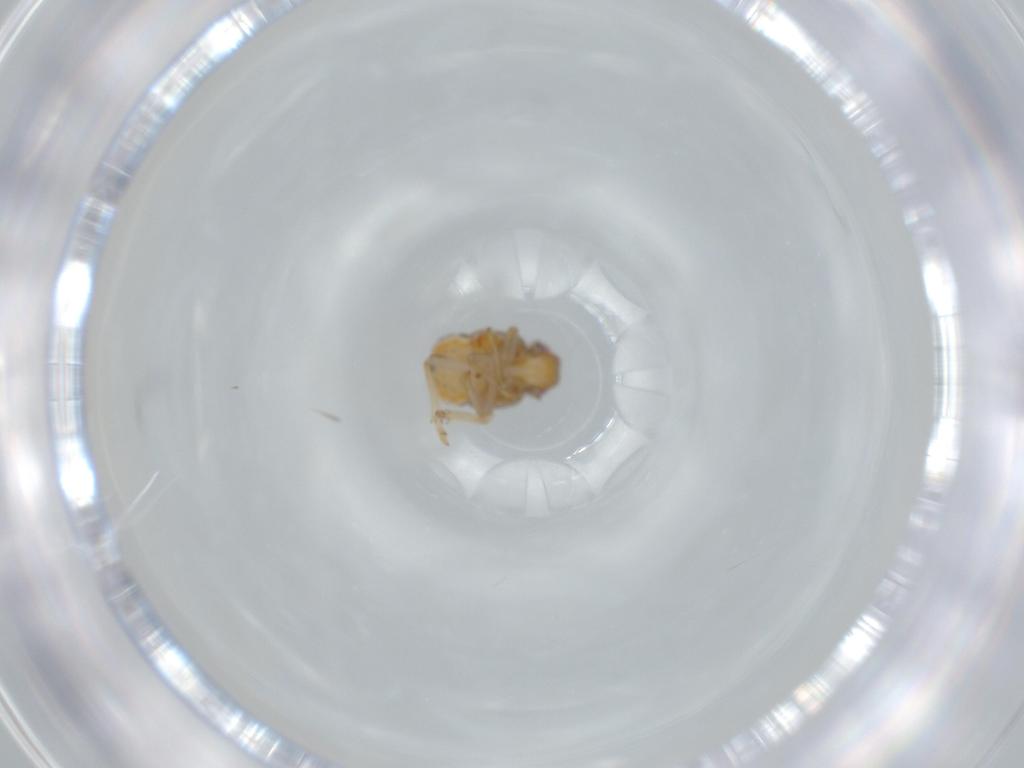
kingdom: Animalia
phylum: Arthropoda
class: Insecta
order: Hemiptera
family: Issidae
